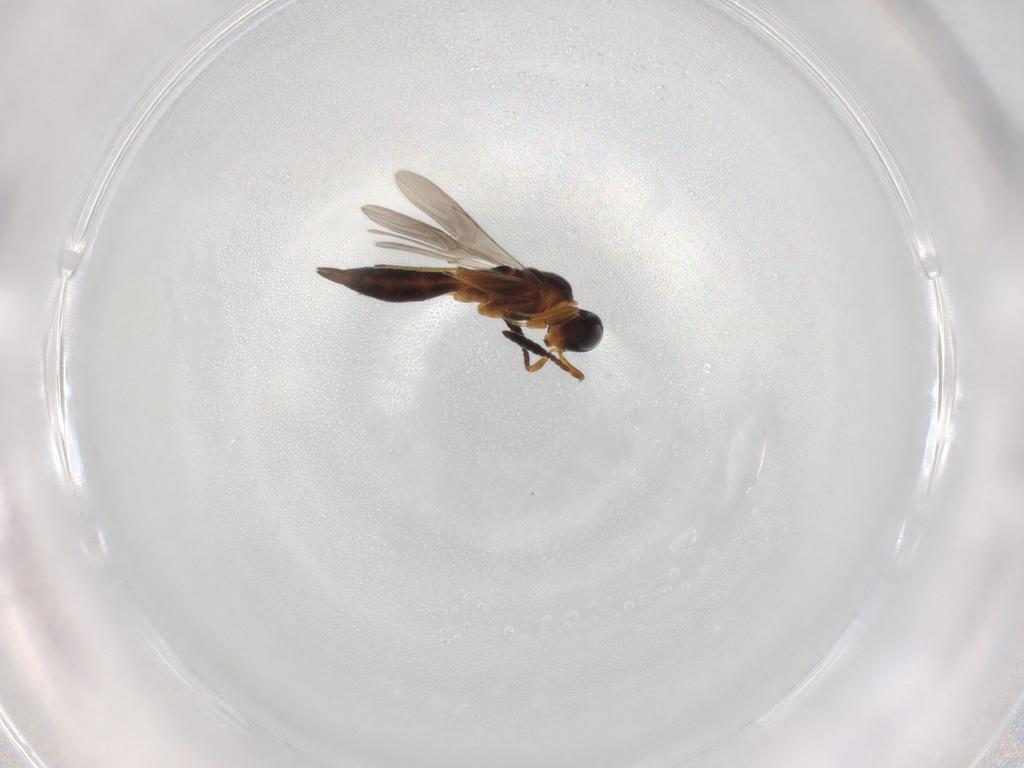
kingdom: Animalia
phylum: Arthropoda
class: Insecta
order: Hymenoptera
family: Scelionidae
